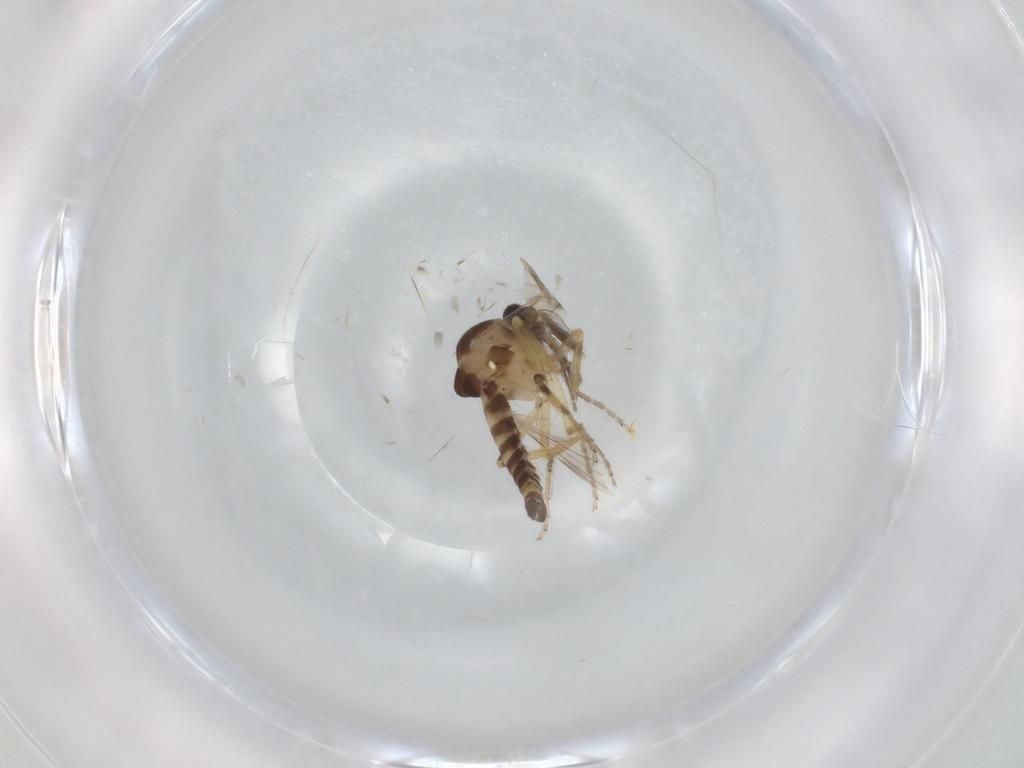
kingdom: Animalia
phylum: Arthropoda
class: Insecta
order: Diptera
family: Ceratopogonidae
